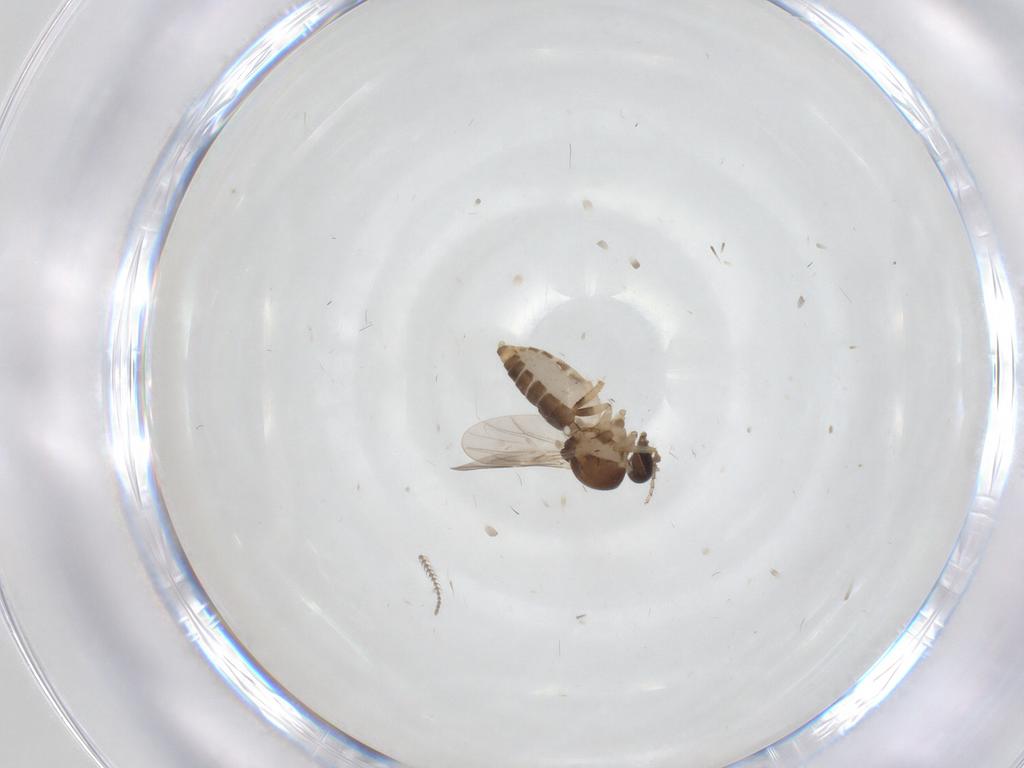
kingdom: Animalia
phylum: Arthropoda
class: Insecta
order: Diptera
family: Ceratopogonidae
